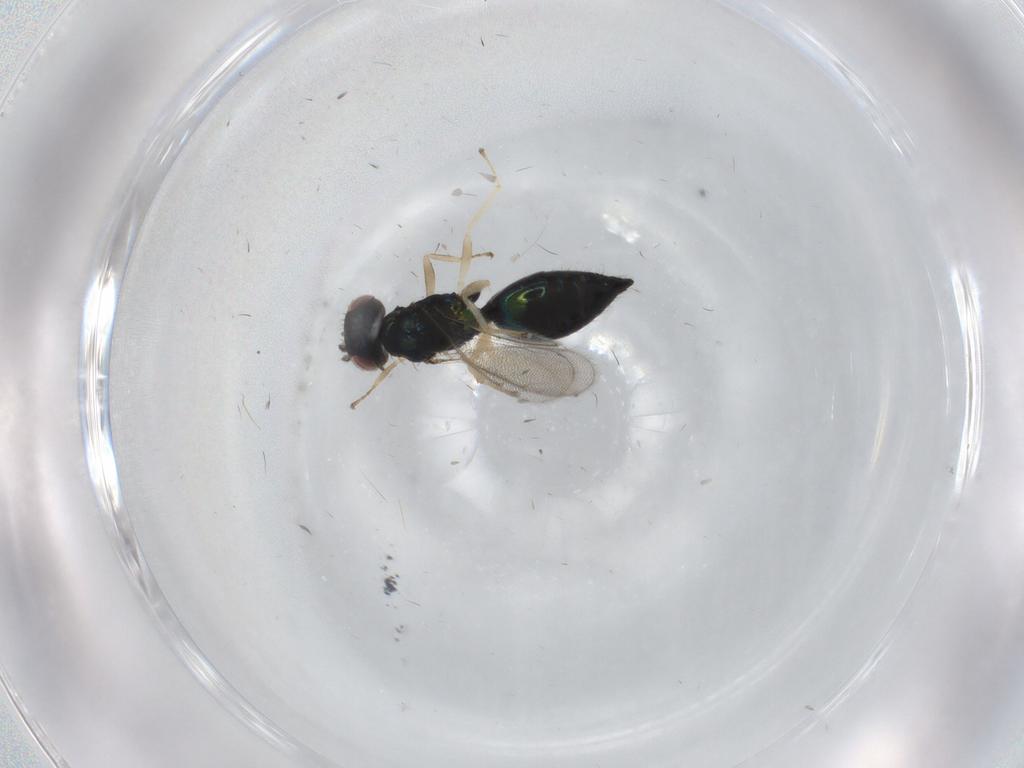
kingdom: Animalia
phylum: Arthropoda
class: Insecta
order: Hymenoptera
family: Eulophidae
